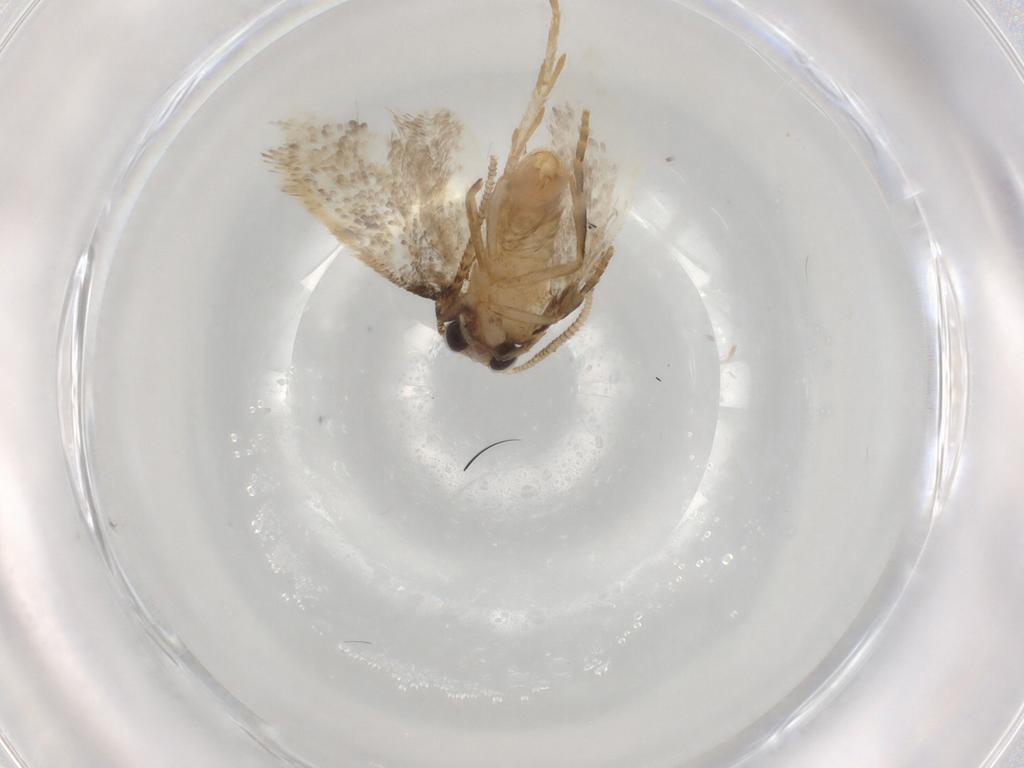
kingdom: Animalia
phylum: Arthropoda
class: Insecta
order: Lepidoptera
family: Tineidae
